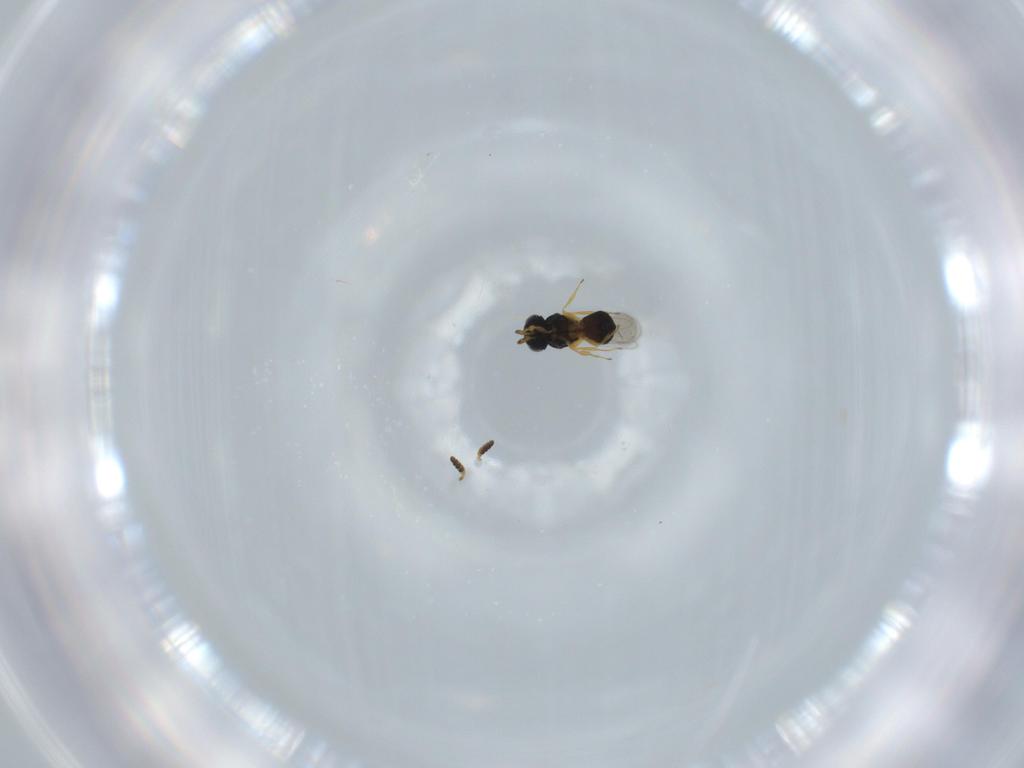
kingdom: Animalia
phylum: Arthropoda
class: Insecta
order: Hymenoptera
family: Scelionidae
